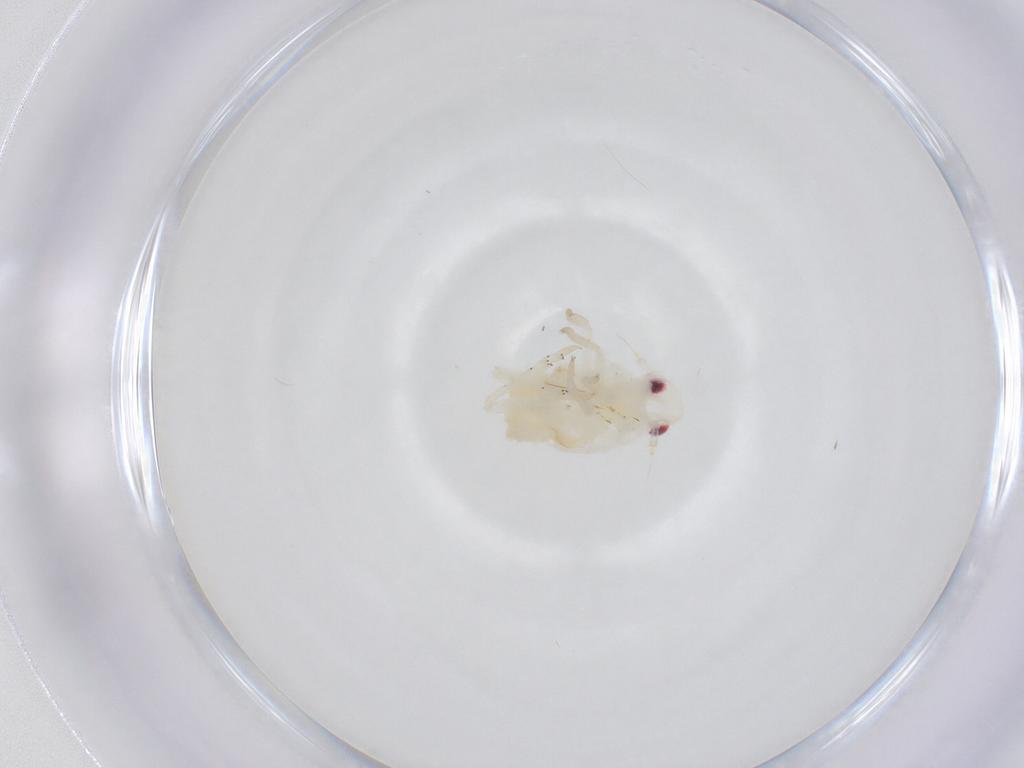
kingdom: Animalia
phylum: Arthropoda
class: Insecta
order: Hemiptera
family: Fulgoroidea_incertae_sedis
